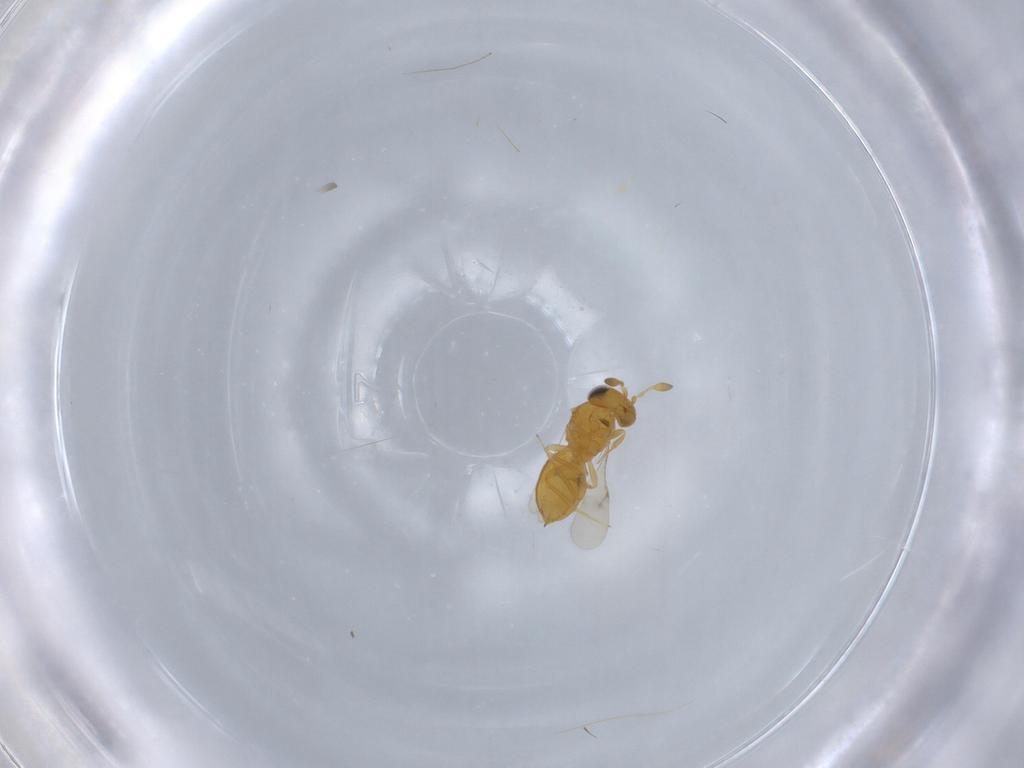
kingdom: Animalia
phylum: Arthropoda
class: Insecta
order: Hymenoptera
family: Scelionidae
